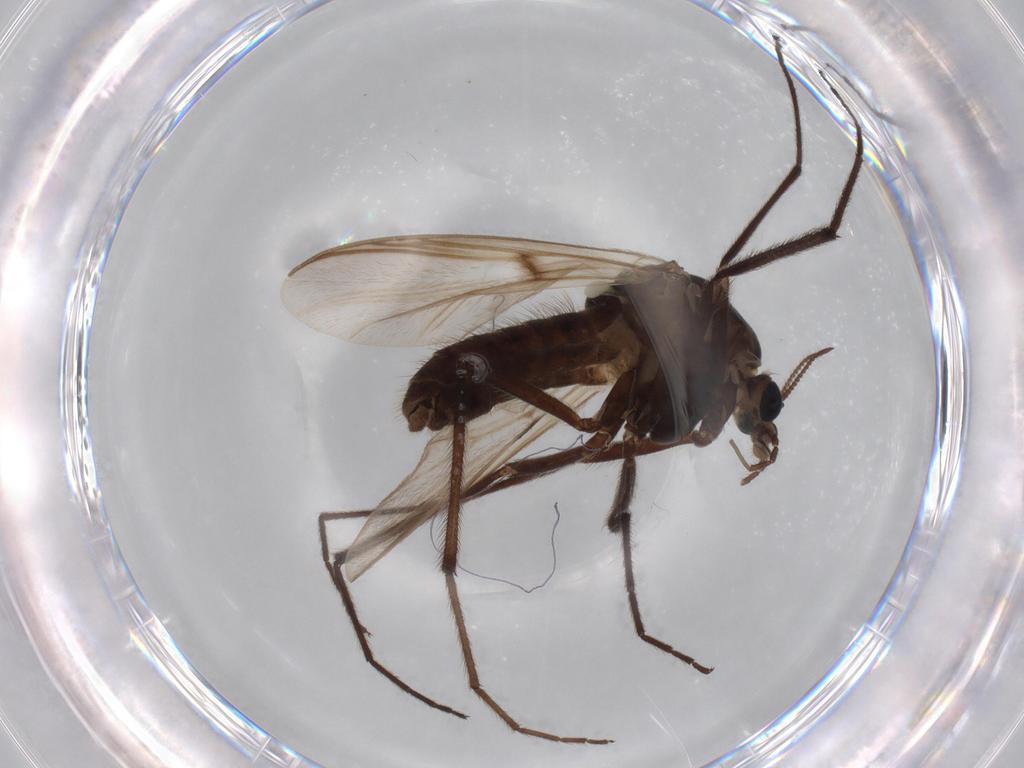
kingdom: Animalia
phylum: Arthropoda
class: Insecta
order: Diptera
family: Chironomidae
